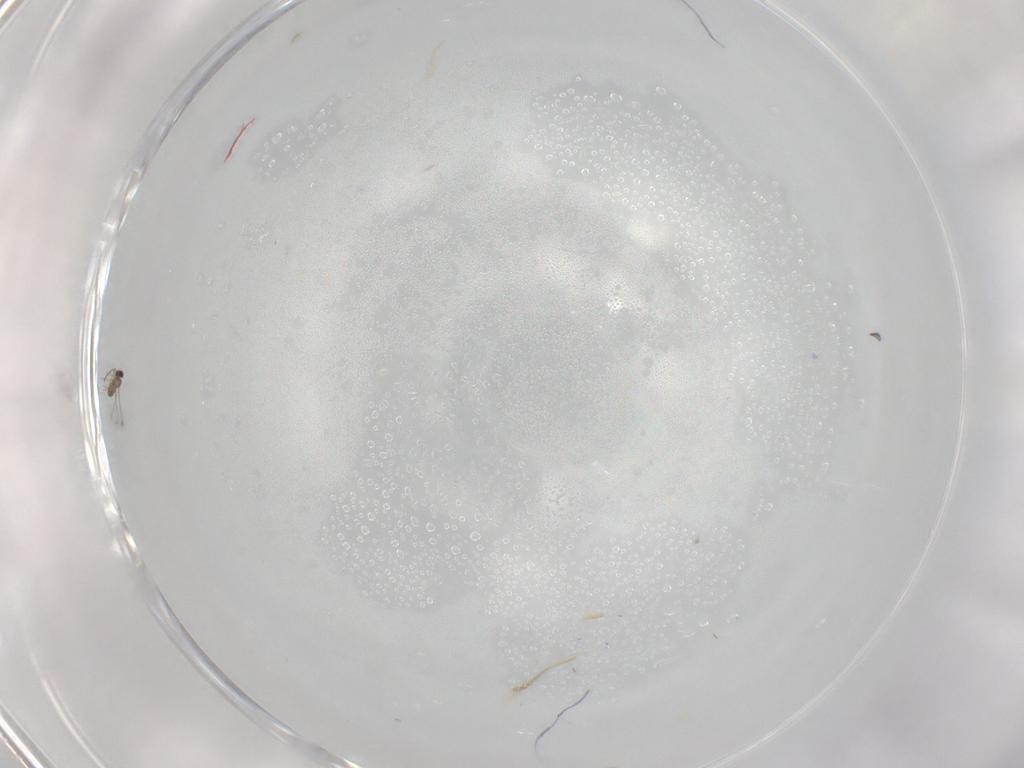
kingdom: Animalia
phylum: Arthropoda
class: Insecta
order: Hymenoptera
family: Mymaridae
